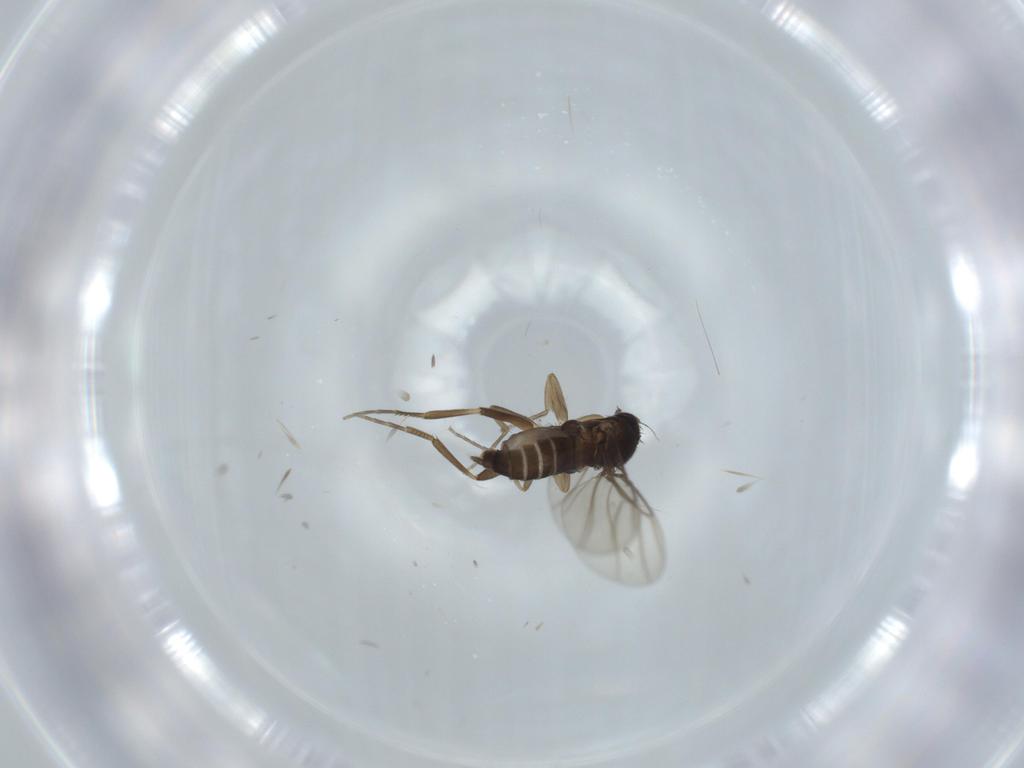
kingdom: Animalia
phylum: Arthropoda
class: Insecta
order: Diptera
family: Phoridae
